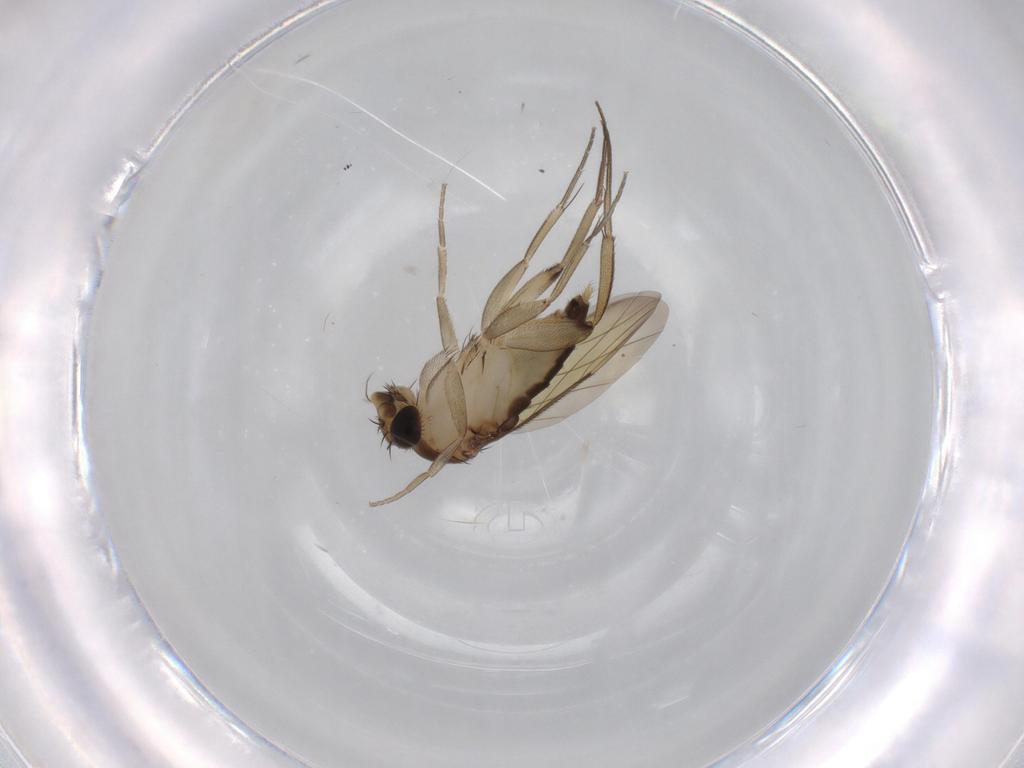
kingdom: Animalia
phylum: Arthropoda
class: Insecta
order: Diptera
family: Phoridae
